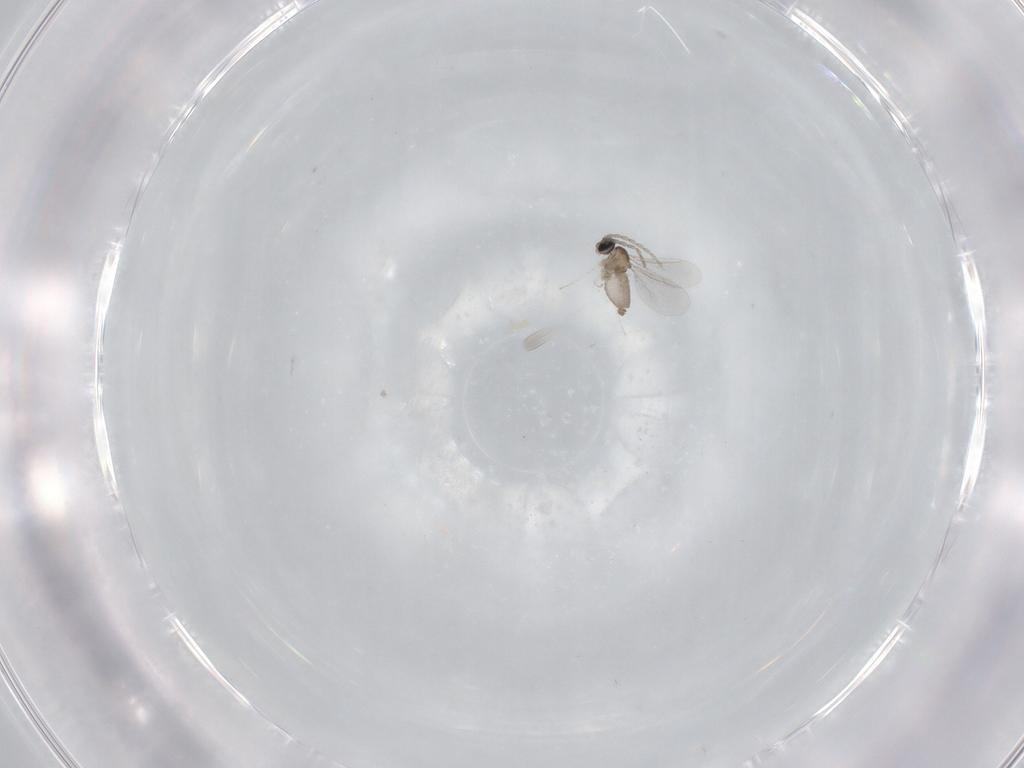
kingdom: Animalia
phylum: Arthropoda
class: Insecta
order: Diptera
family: Cecidomyiidae
